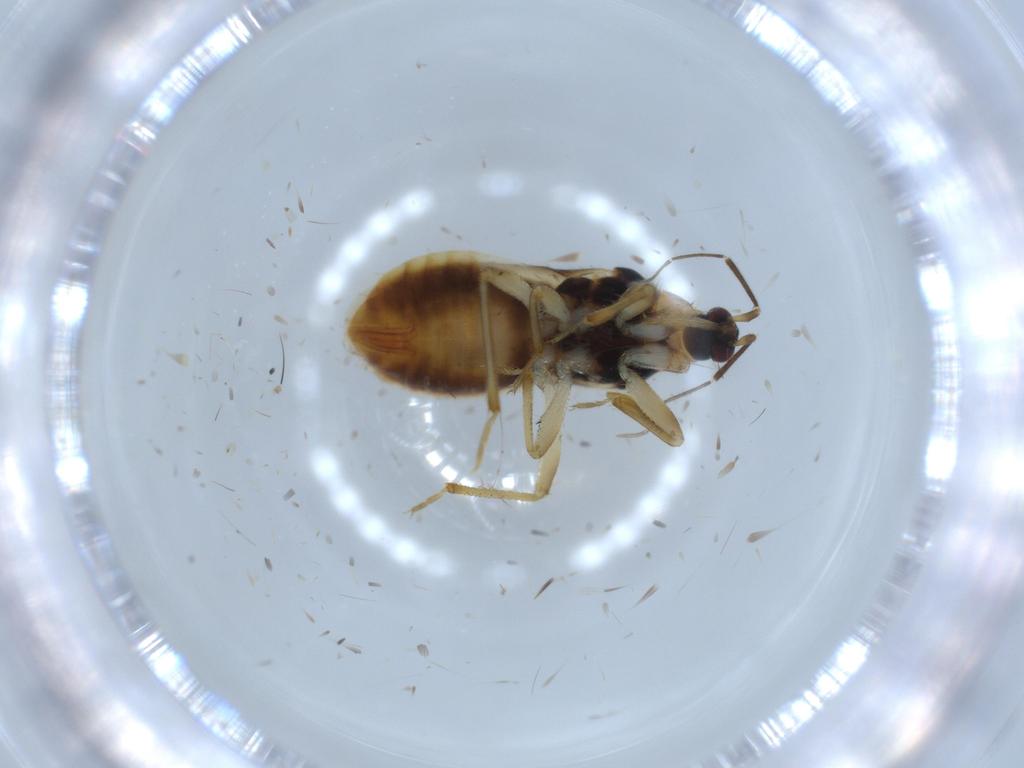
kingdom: Animalia
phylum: Arthropoda
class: Insecta
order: Hemiptera
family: Nabidae
